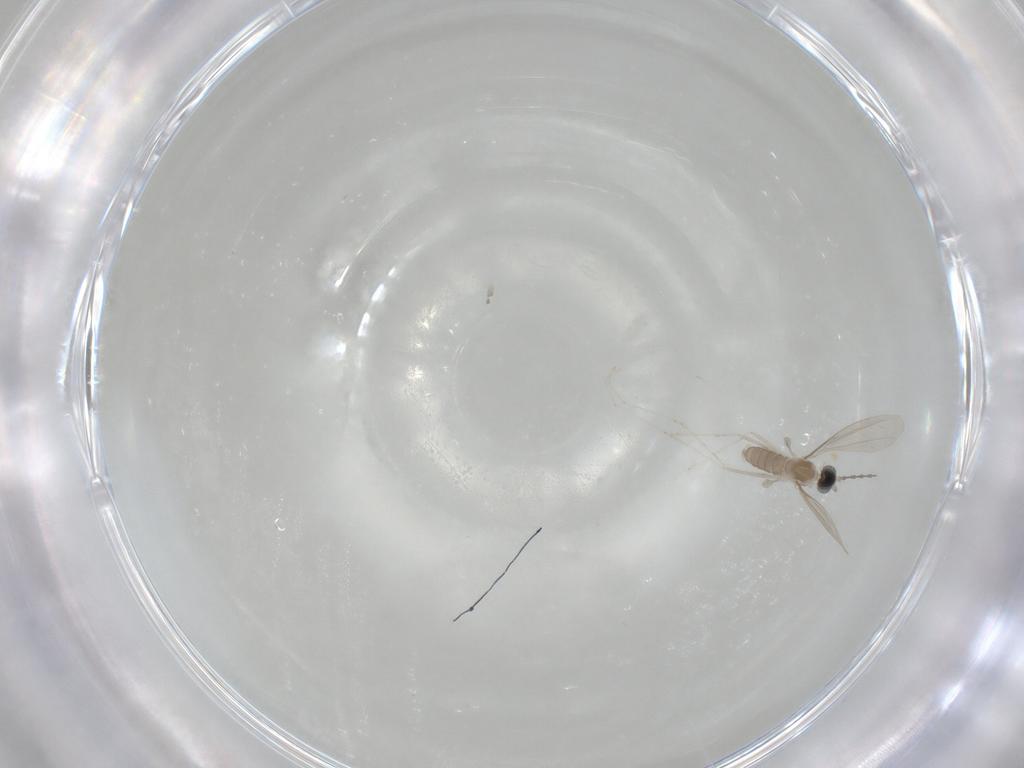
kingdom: Animalia
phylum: Arthropoda
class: Insecta
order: Diptera
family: Cecidomyiidae
